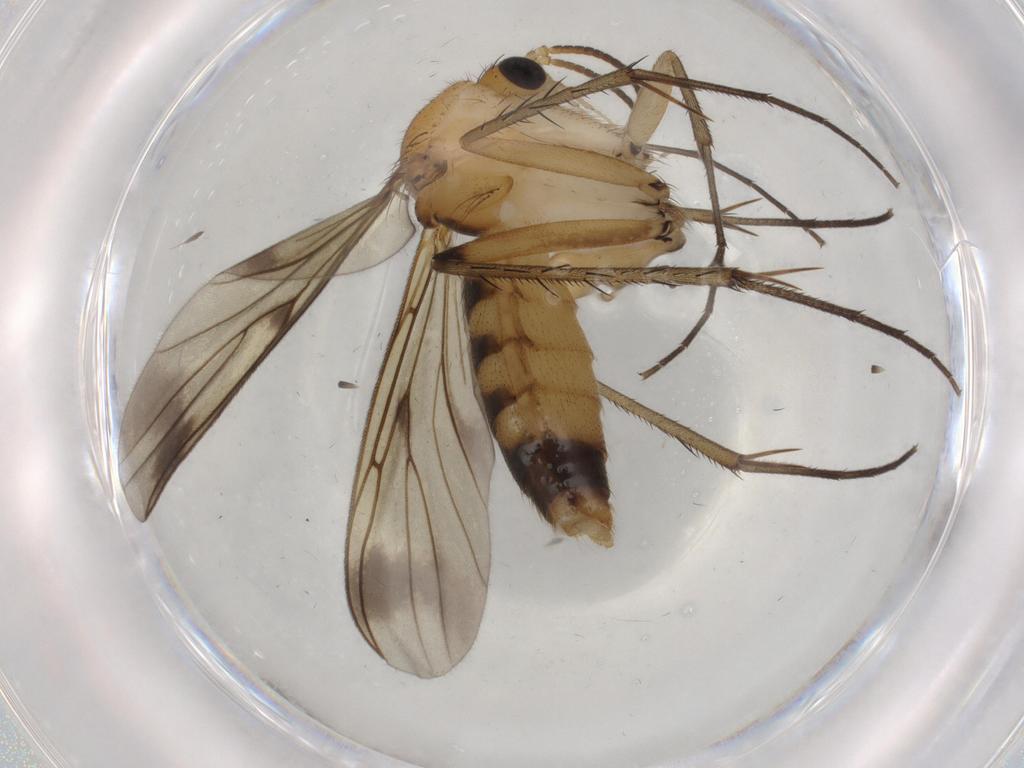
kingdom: Animalia
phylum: Arthropoda
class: Insecta
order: Diptera
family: Mycetophilidae
